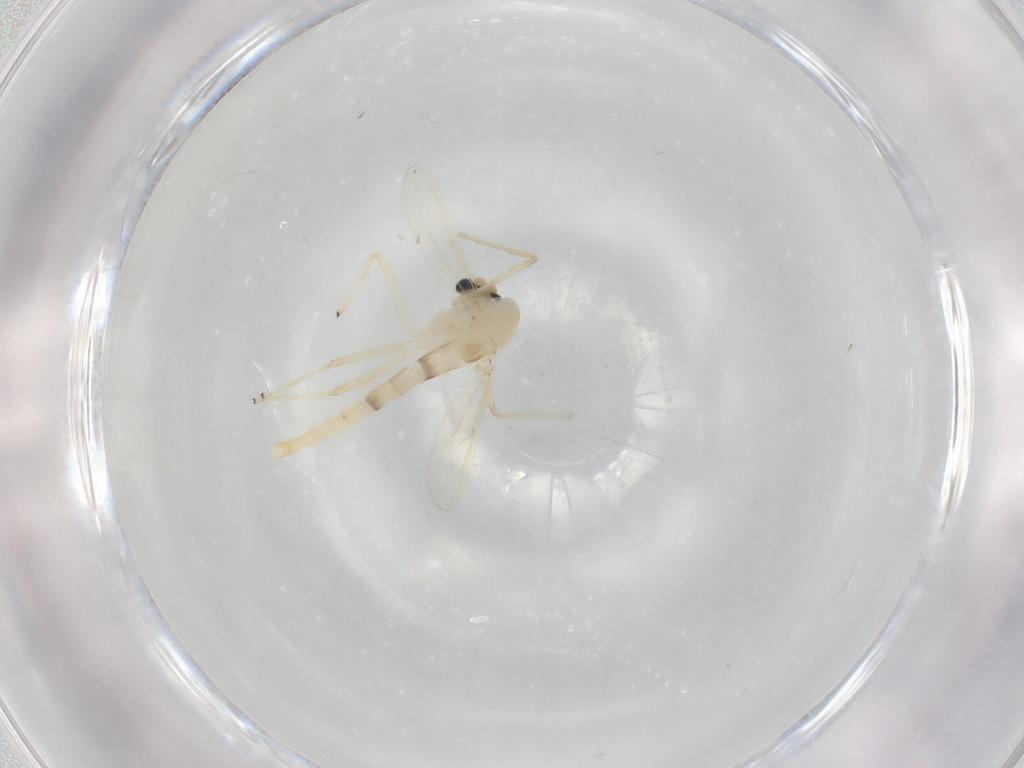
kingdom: Animalia
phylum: Arthropoda
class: Insecta
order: Diptera
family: Chironomidae
